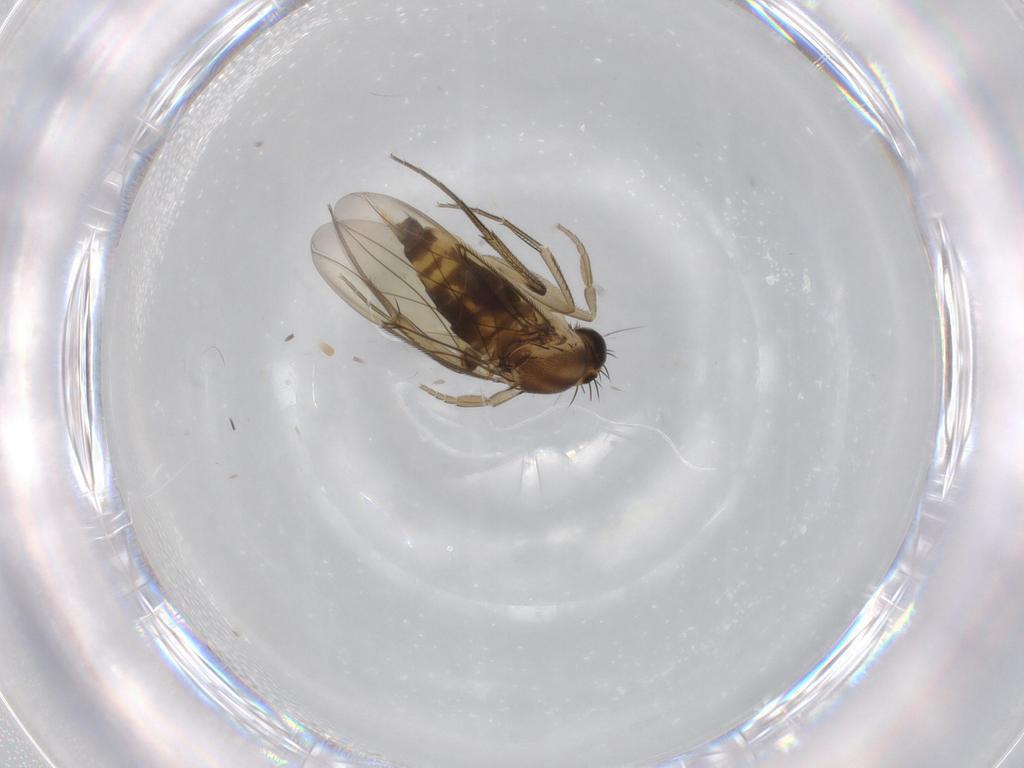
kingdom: Animalia
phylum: Arthropoda
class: Insecta
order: Diptera
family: Phoridae
